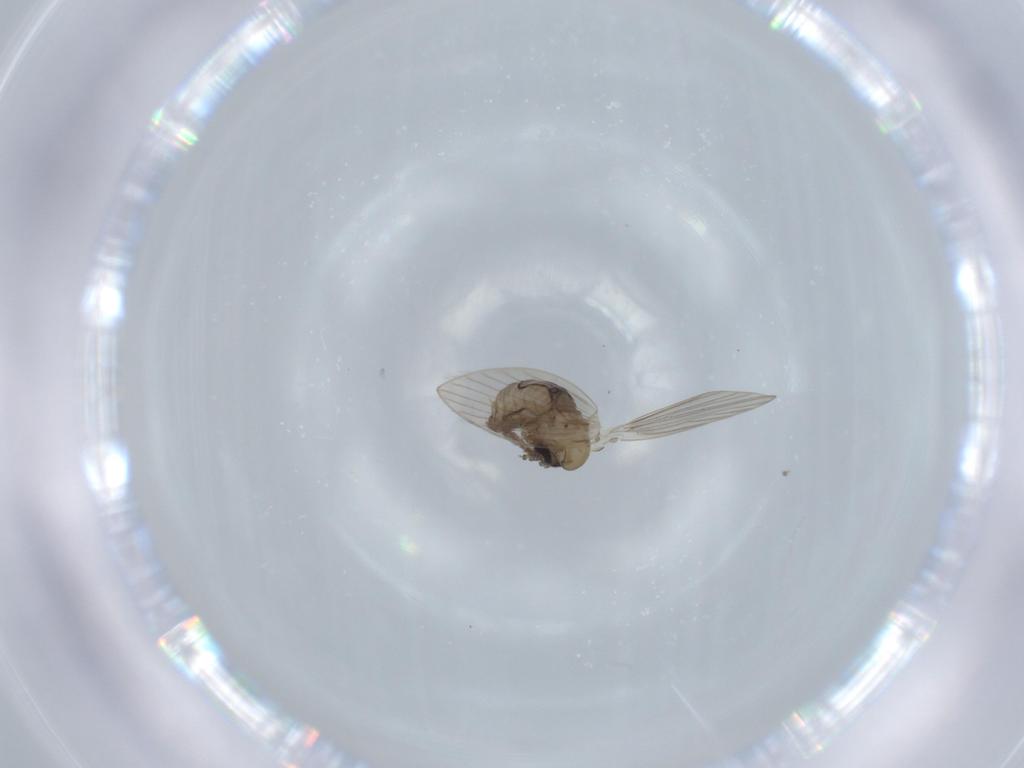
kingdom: Animalia
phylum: Arthropoda
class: Insecta
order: Diptera
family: Psychodidae
